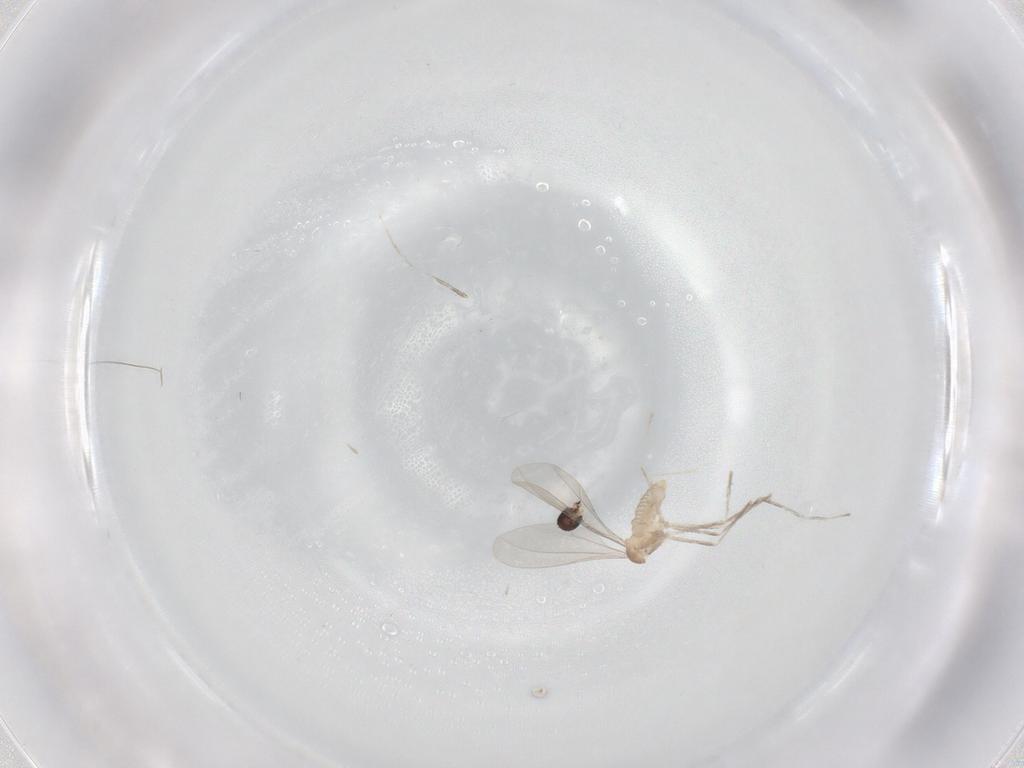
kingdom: Animalia
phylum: Arthropoda
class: Insecta
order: Diptera
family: Cecidomyiidae
